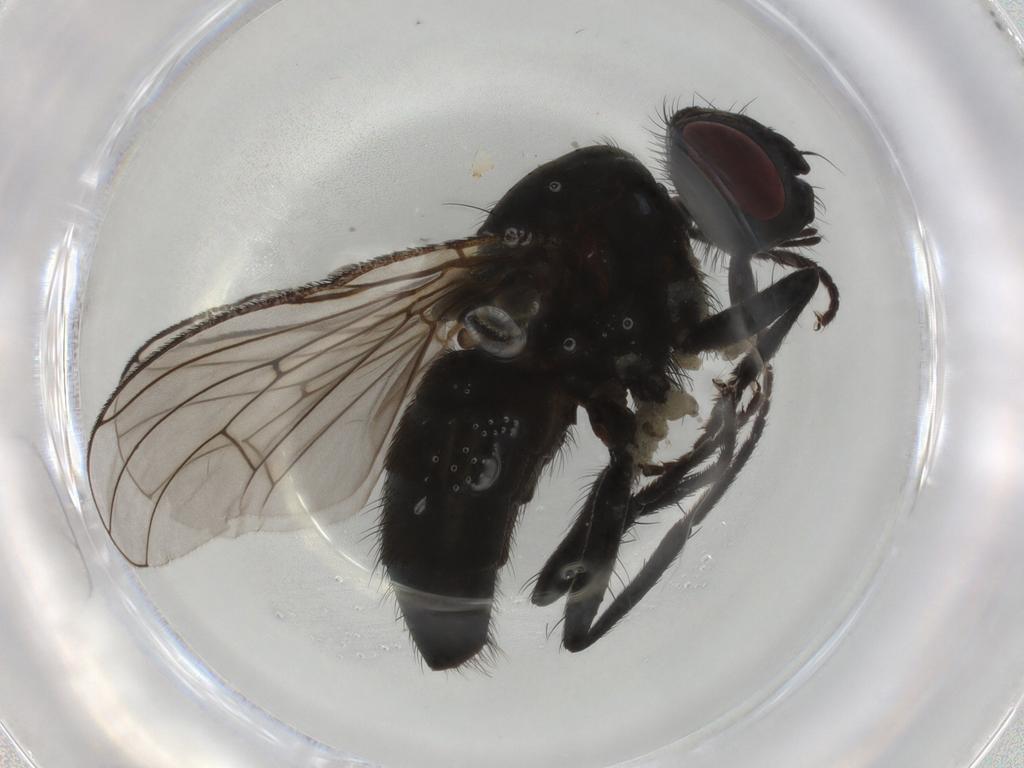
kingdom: Animalia
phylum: Arthropoda
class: Insecta
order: Diptera
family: Muscidae
